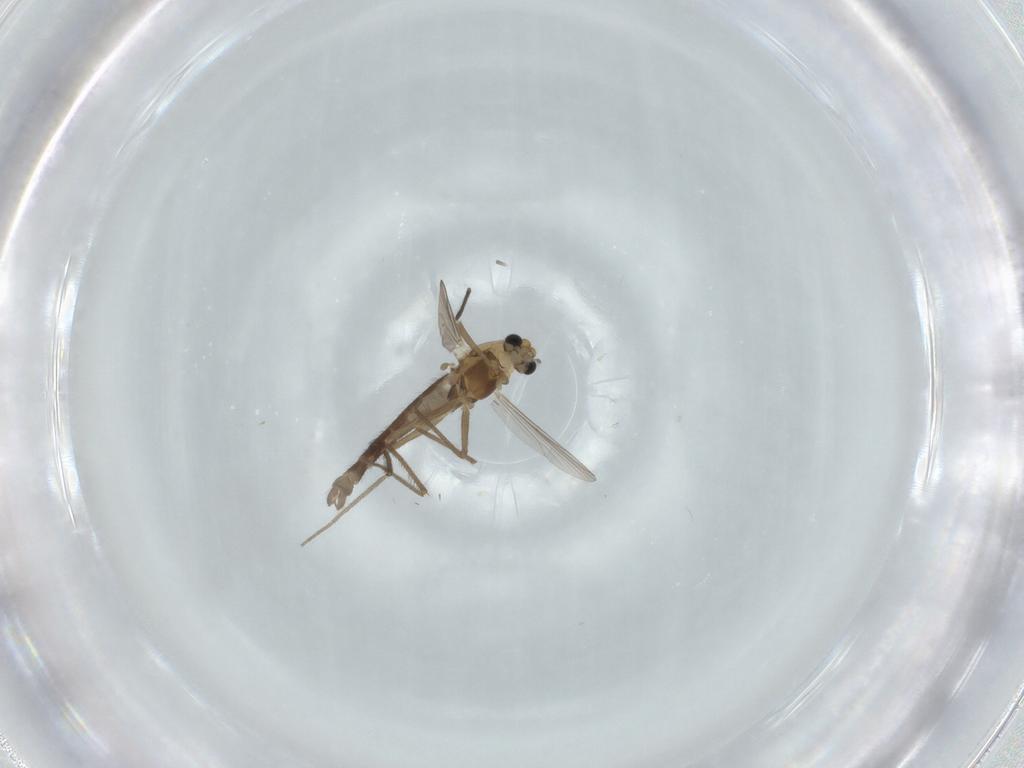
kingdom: Animalia
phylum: Arthropoda
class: Insecta
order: Diptera
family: Chironomidae
